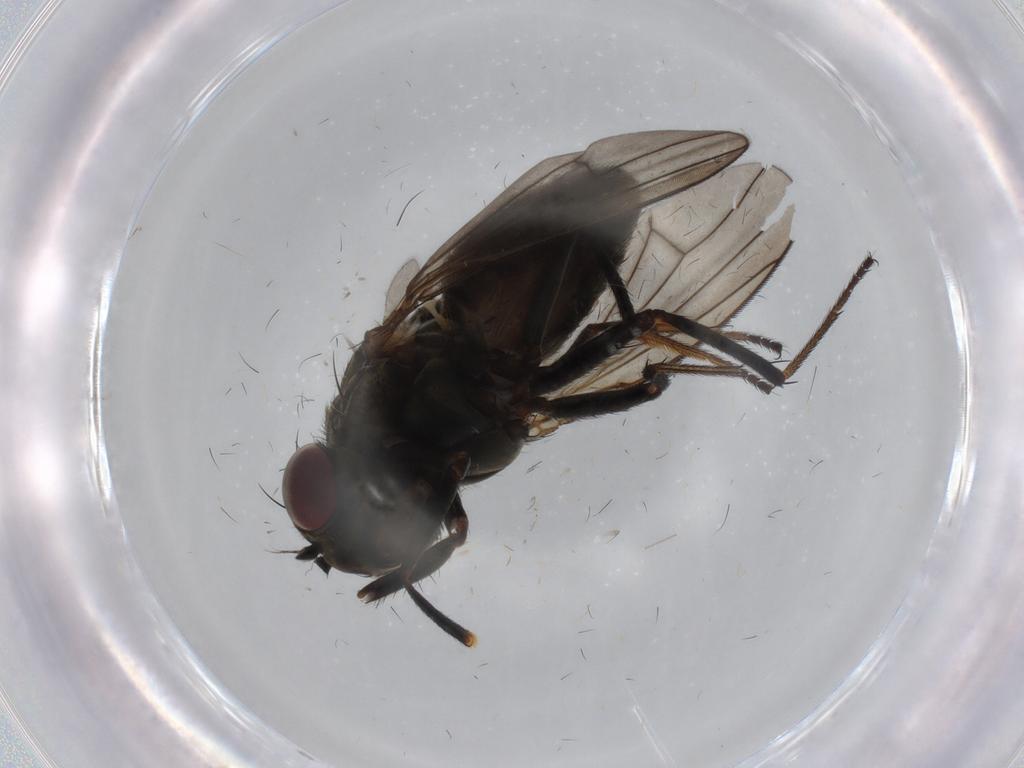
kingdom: Animalia
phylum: Arthropoda
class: Insecta
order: Diptera
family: Ephydridae
